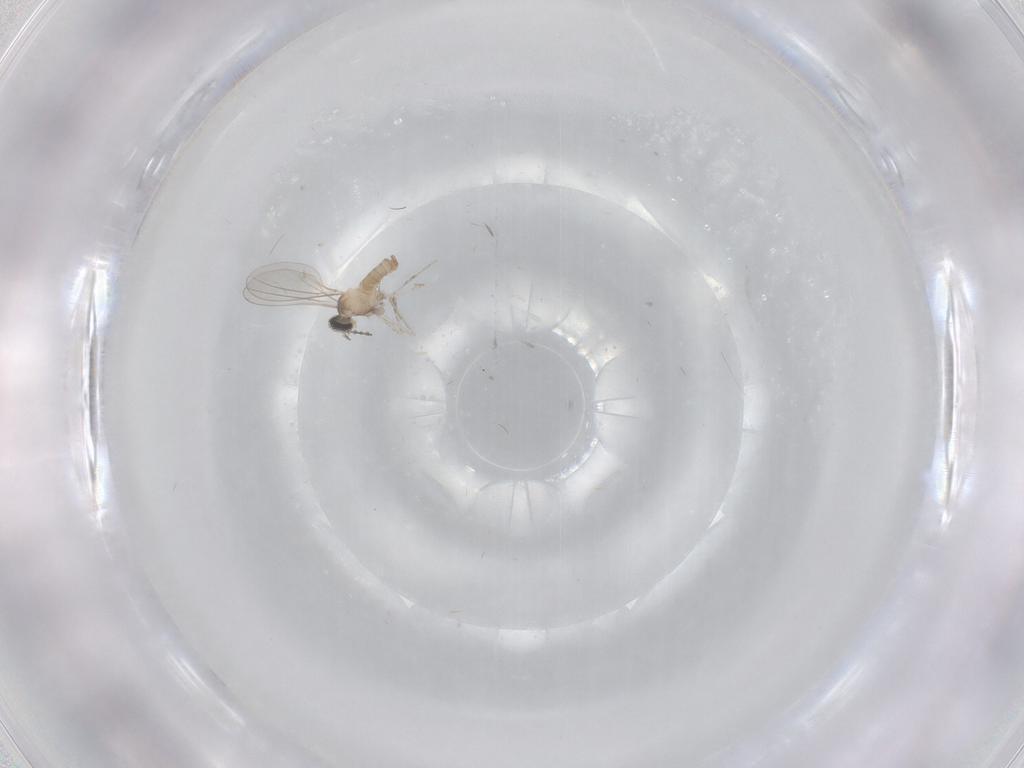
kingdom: Animalia
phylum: Arthropoda
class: Insecta
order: Diptera
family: Chironomidae
